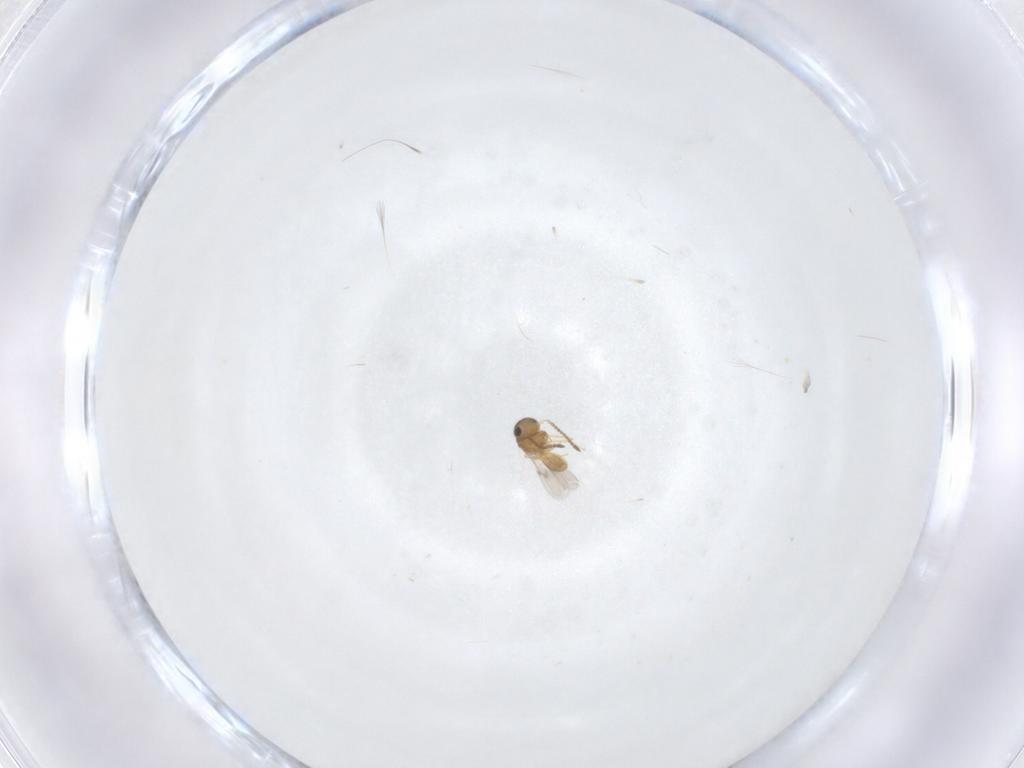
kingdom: Animalia
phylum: Arthropoda
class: Insecta
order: Hymenoptera
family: Scelionidae
